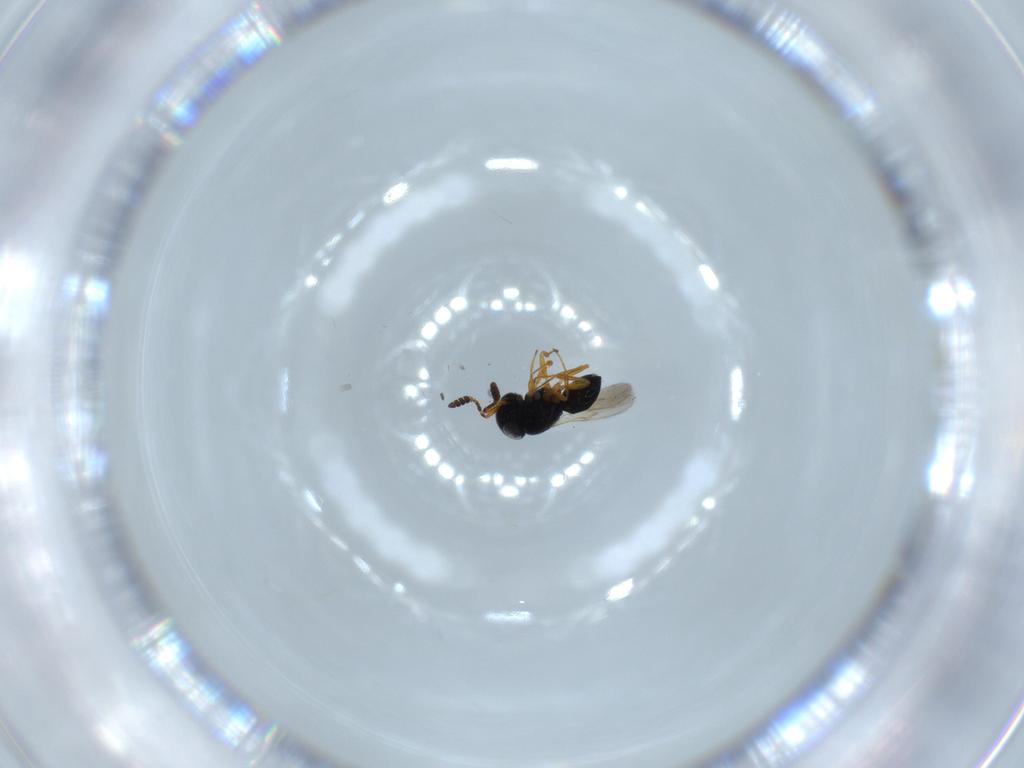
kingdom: Animalia
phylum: Arthropoda
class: Insecta
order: Hymenoptera
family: Scelionidae
